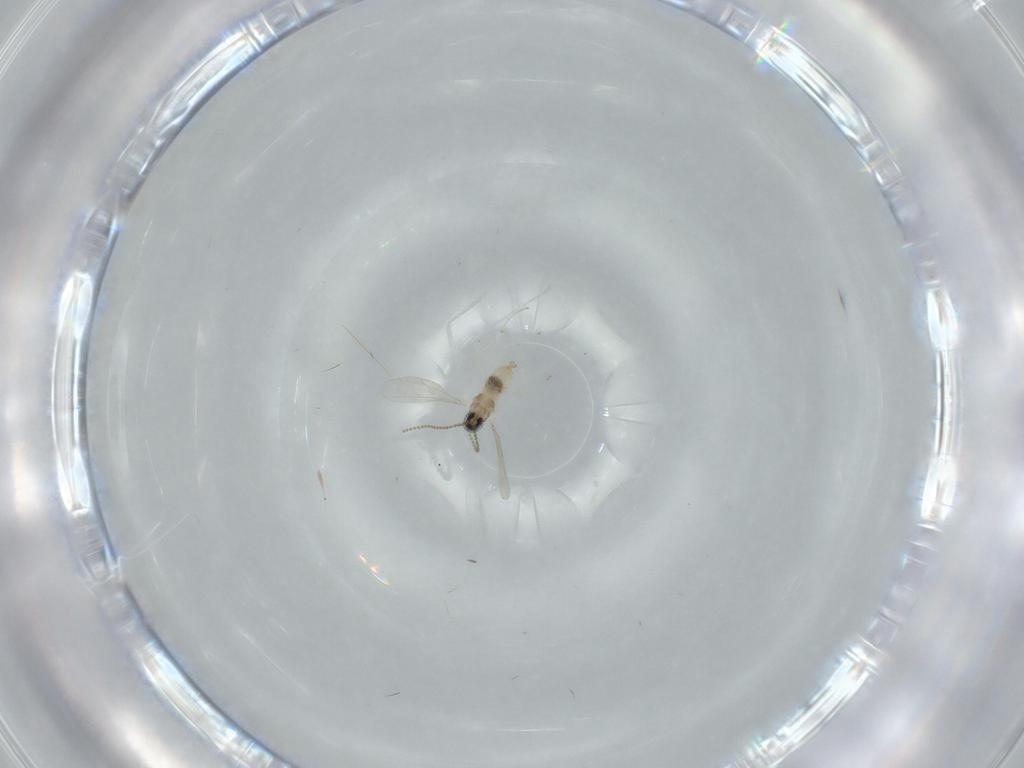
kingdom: Animalia
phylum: Arthropoda
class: Insecta
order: Diptera
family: Cecidomyiidae
